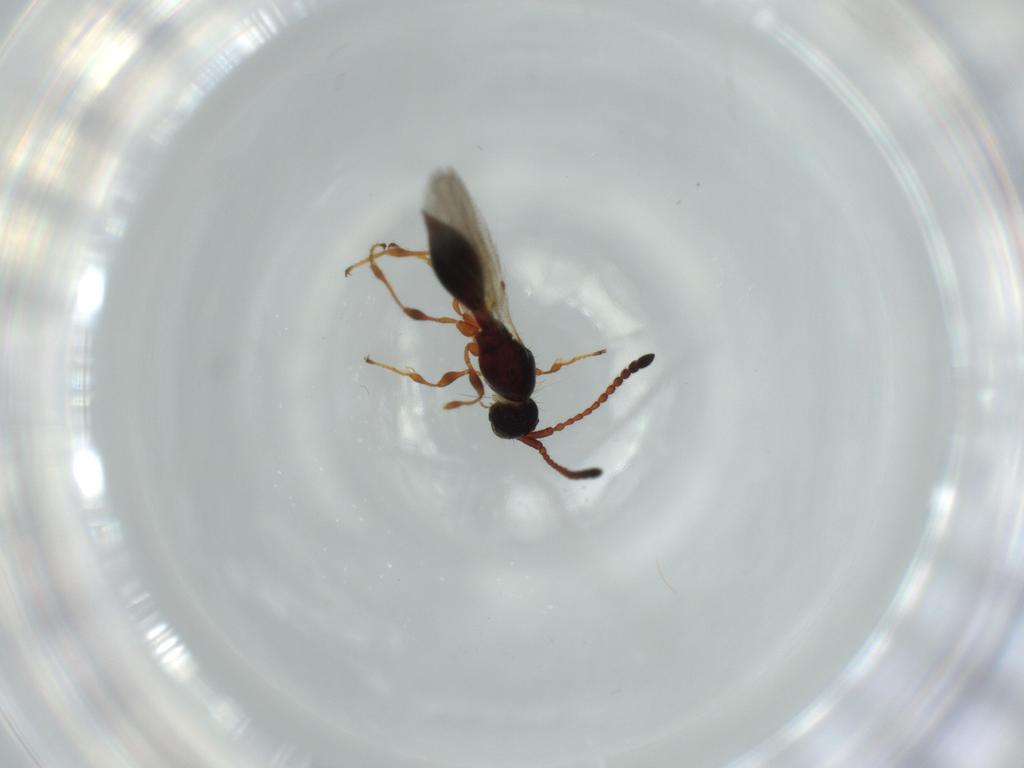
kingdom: Animalia
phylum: Arthropoda
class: Insecta
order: Hymenoptera
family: Diapriidae
